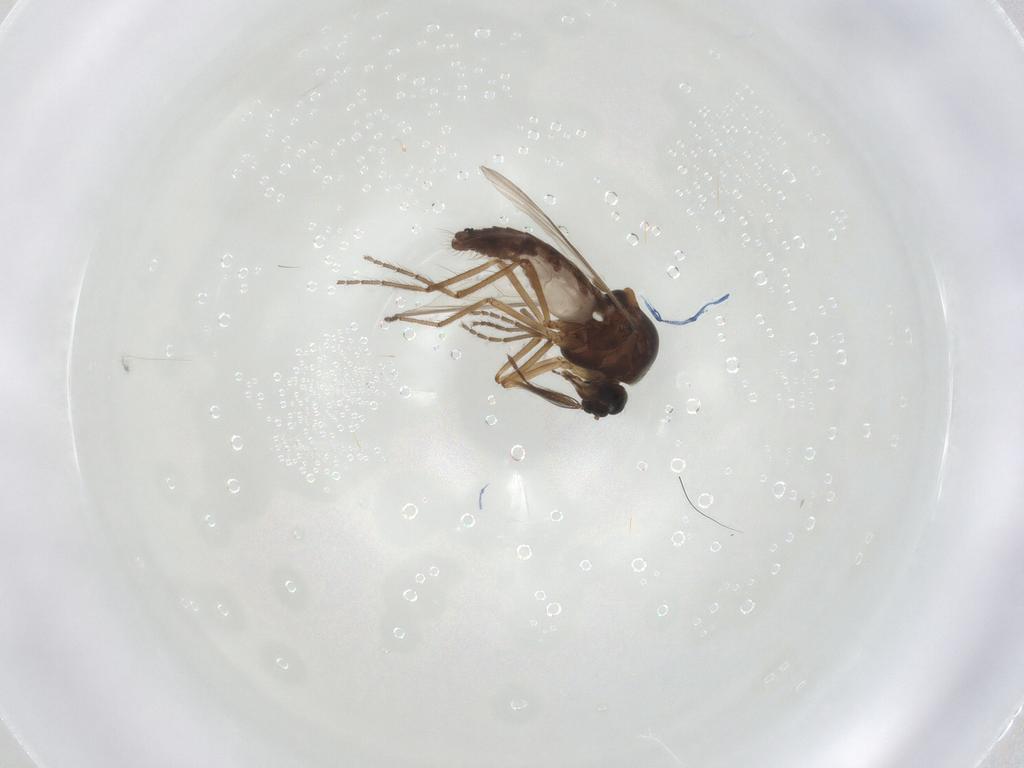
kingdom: Animalia
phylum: Arthropoda
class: Insecta
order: Diptera
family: Ceratopogonidae
